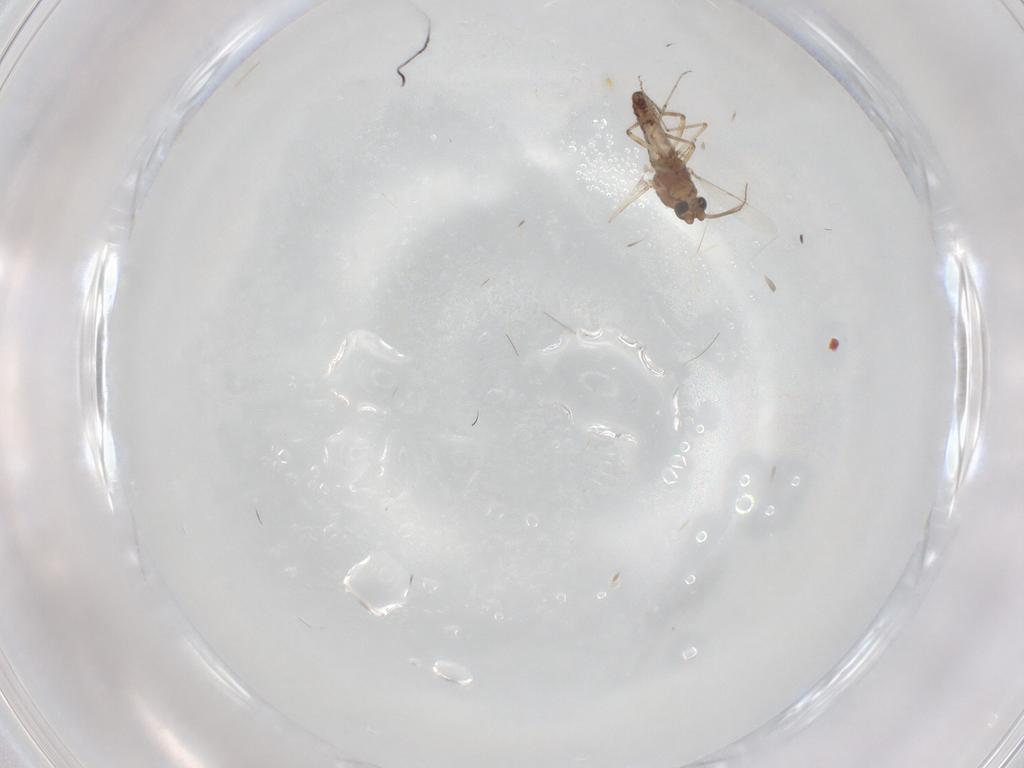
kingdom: Animalia
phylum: Arthropoda
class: Insecta
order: Diptera
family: Ceratopogonidae
